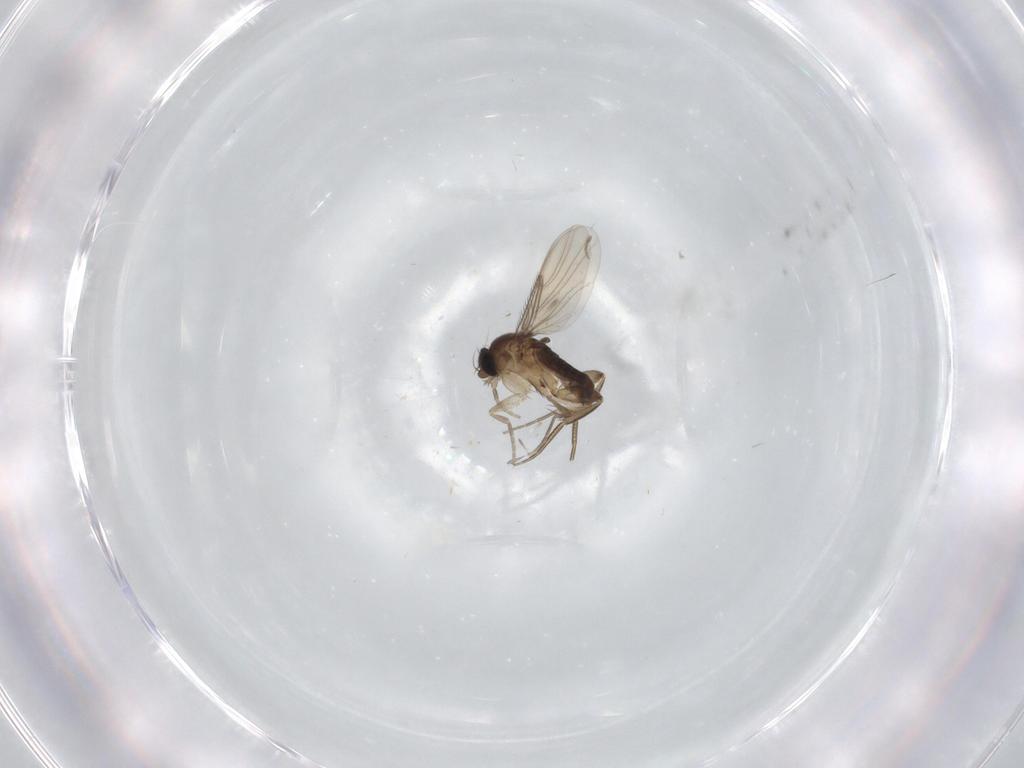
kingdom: Animalia
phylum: Arthropoda
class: Insecta
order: Diptera
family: Phoridae
